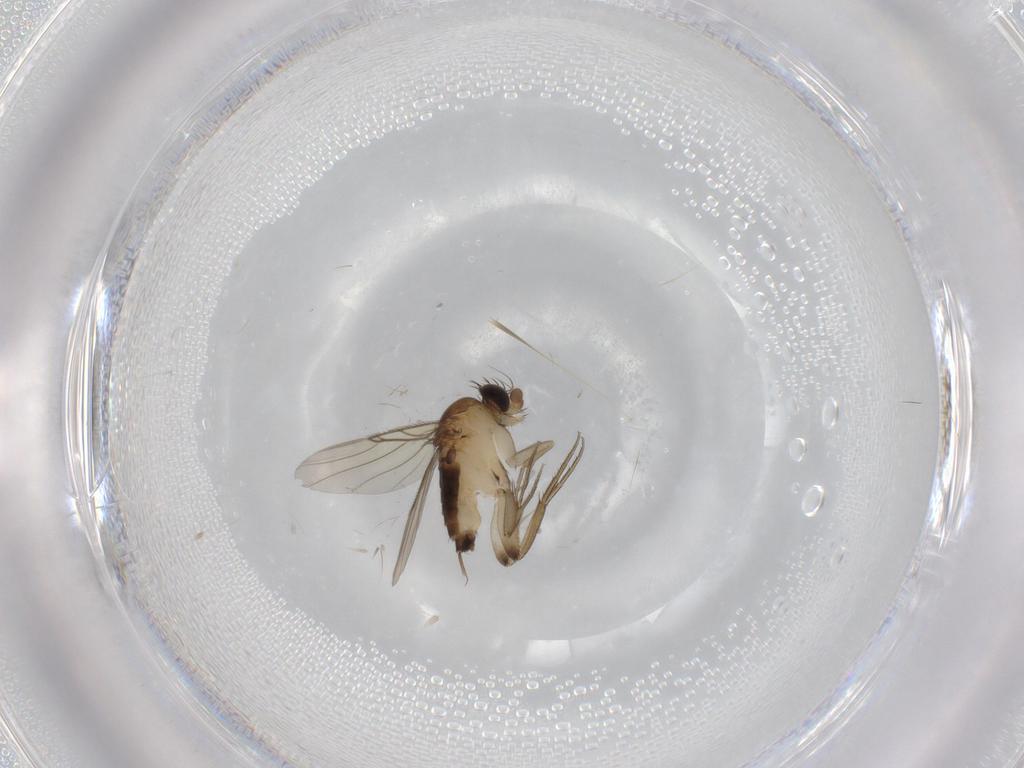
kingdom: Animalia
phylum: Arthropoda
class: Insecta
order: Diptera
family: Phoridae
